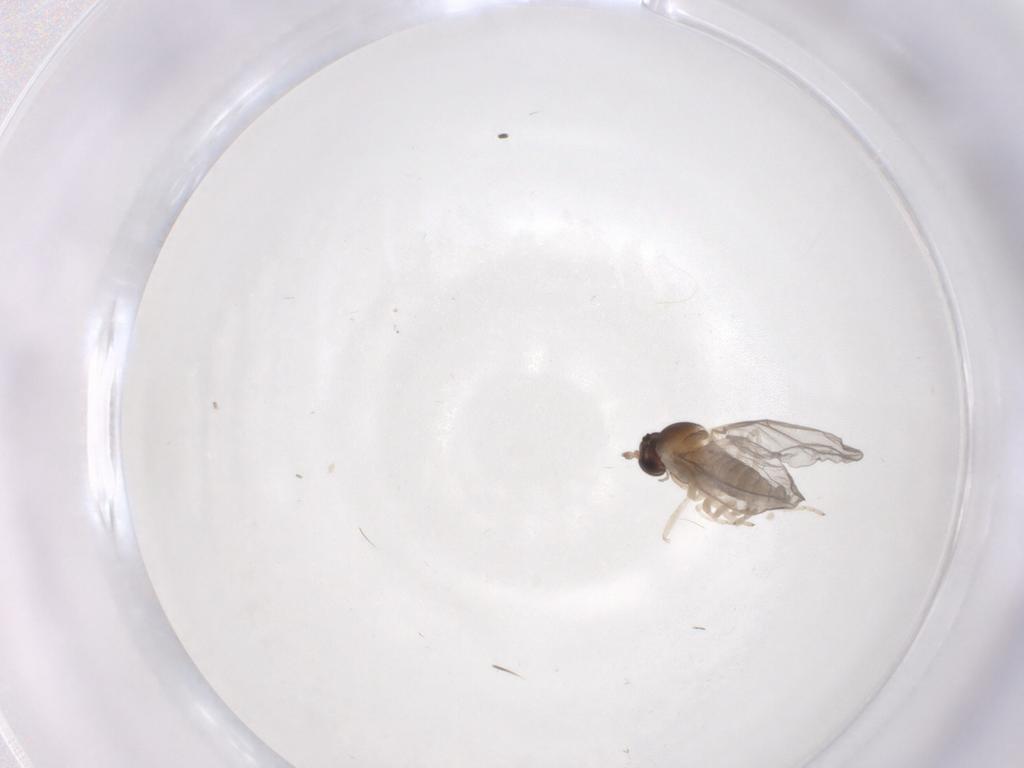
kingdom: Animalia
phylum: Arthropoda
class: Insecta
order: Diptera
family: Cecidomyiidae
